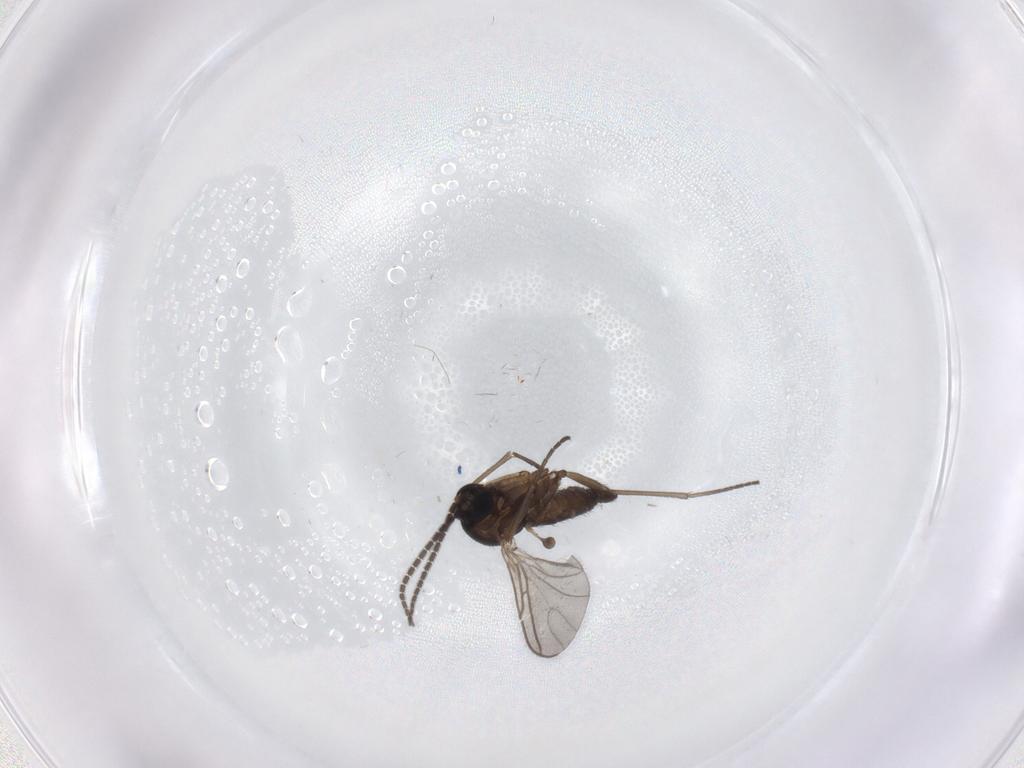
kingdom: Animalia
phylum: Arthropoda
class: Insecta
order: Diptera
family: Sciaridae
